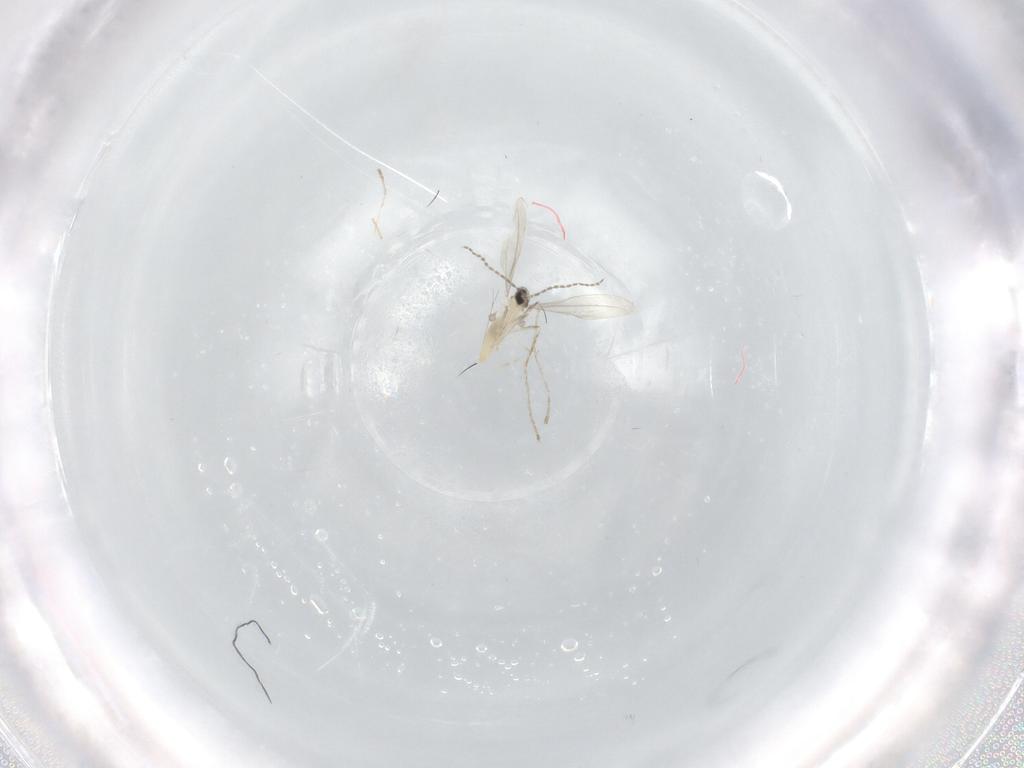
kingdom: Animalia
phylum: Arthropoda
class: Insecta
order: Diptera
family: Cecidomyiidae
